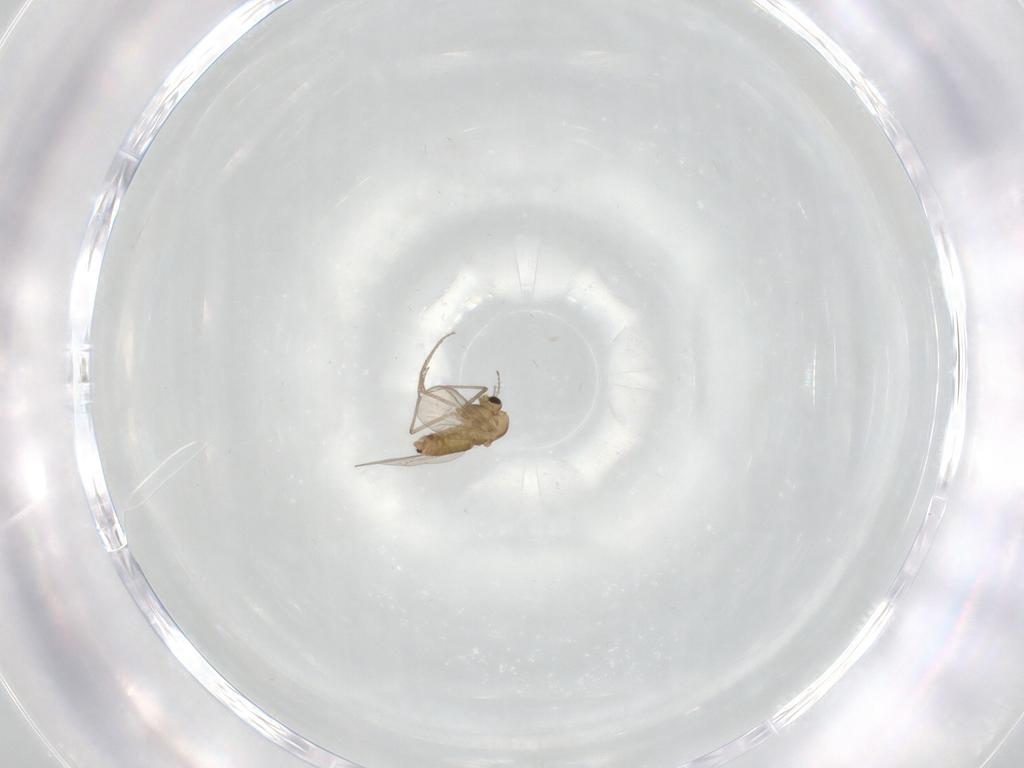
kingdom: Animalia
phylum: Arthropoda
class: Insecta
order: Diptera
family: Chironomidae
